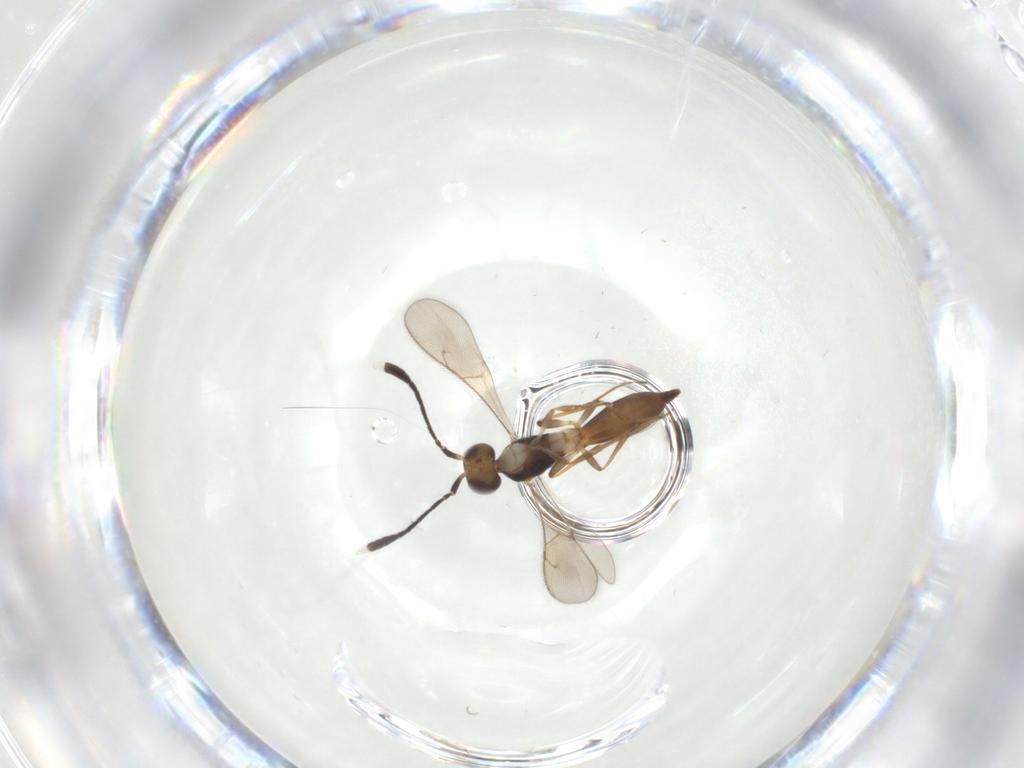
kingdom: Animalia
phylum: Arthropoda
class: Insecta
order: Hymenoptera
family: Scelionidae
